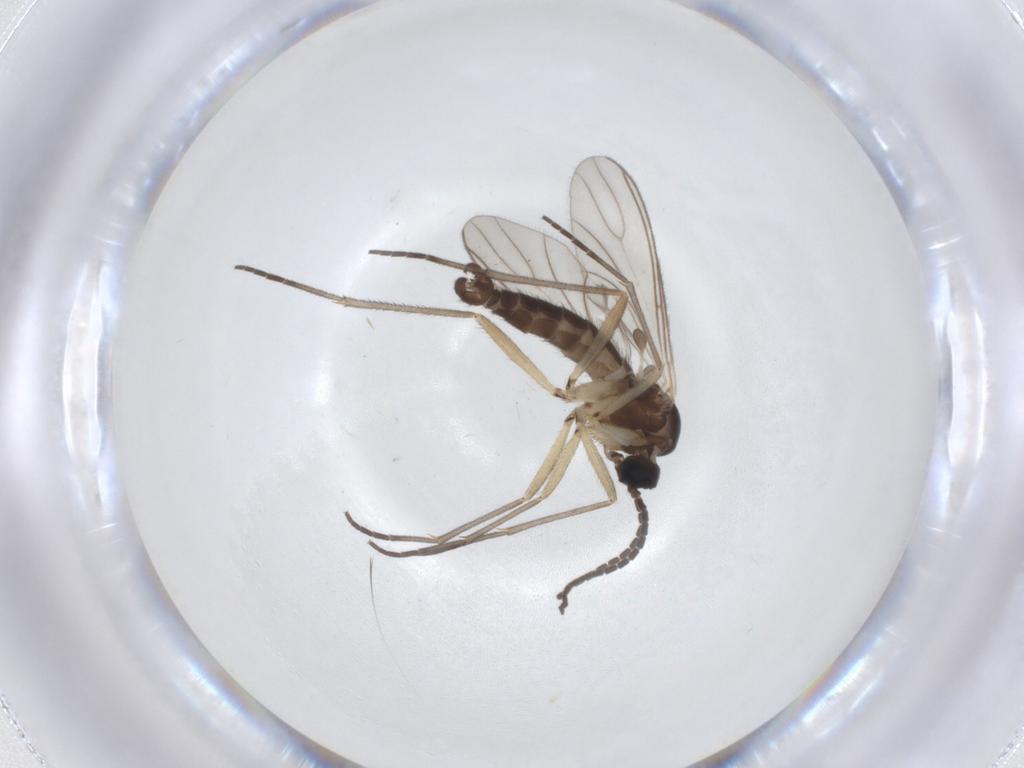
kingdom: Animalia
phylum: Arthropoda
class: Insecta
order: Diptera
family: Sciaridae
